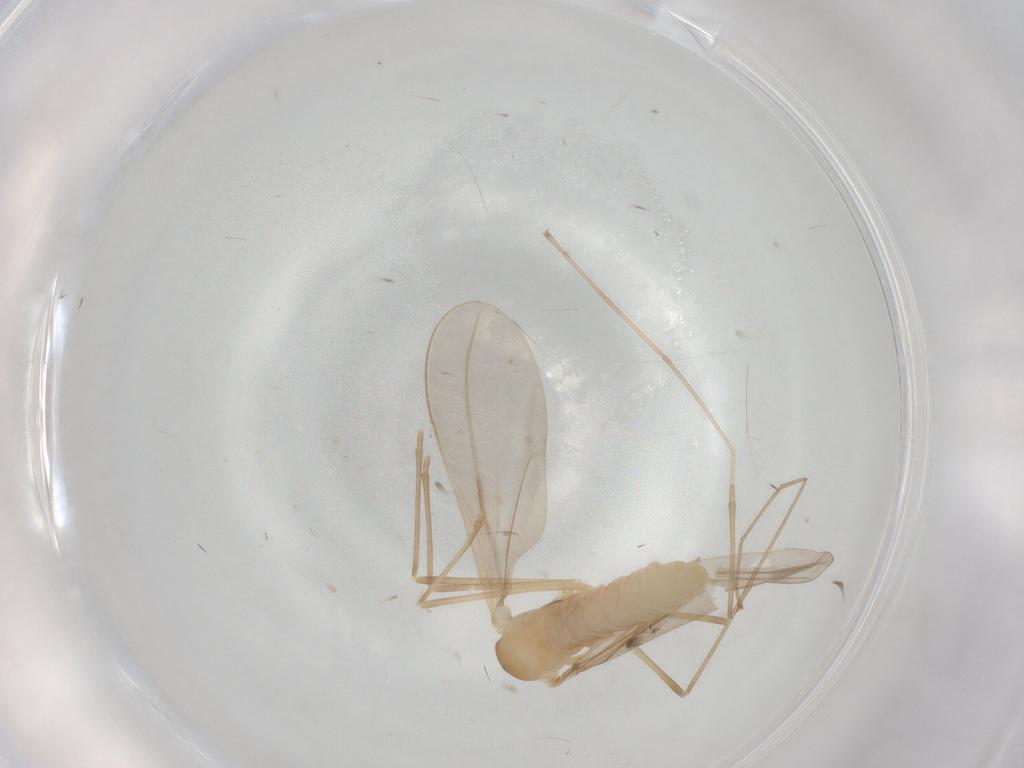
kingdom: Animalia
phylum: Arthropoda
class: Insecta
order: Diptera
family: Cecidomyiidae
